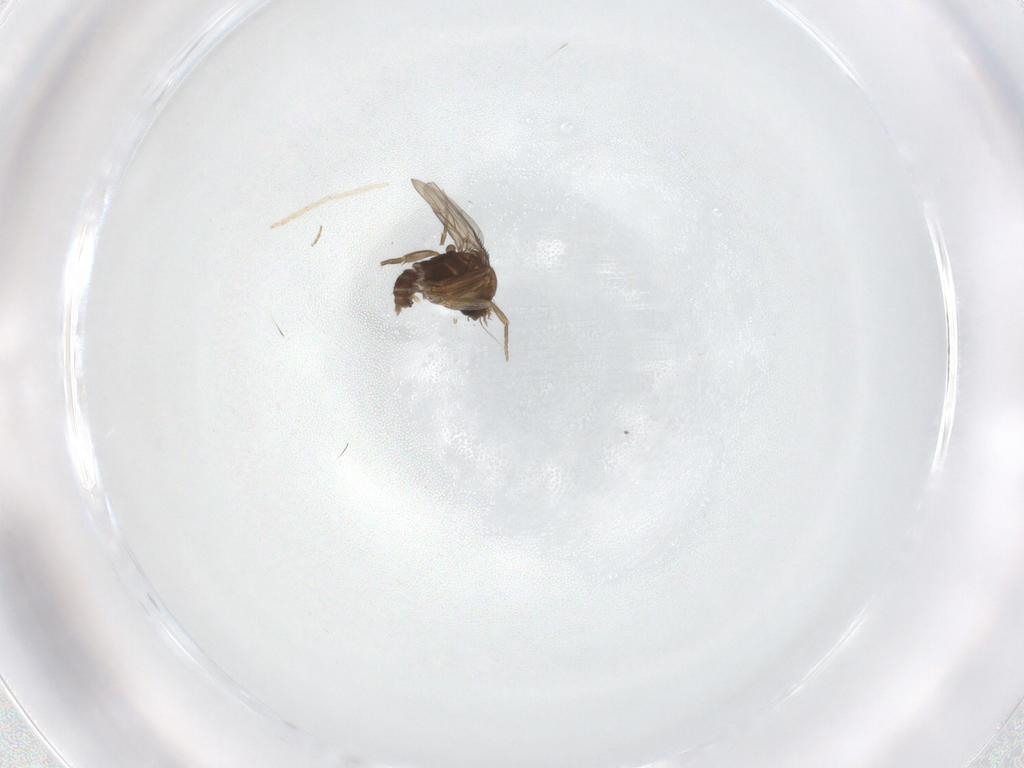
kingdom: Animalia
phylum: Arthropoda
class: Insecta
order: Diptera
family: Phoridae
